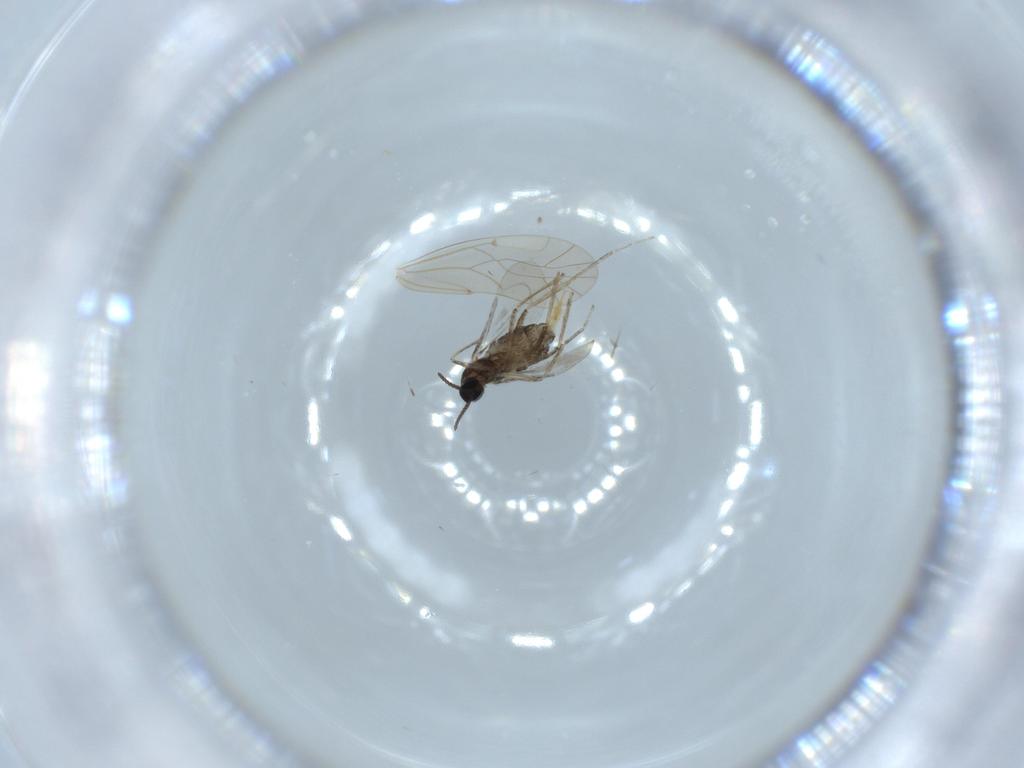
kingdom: Animalia
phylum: Arthropoda
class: Insecta
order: Diptera
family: Cecidomyiidae
